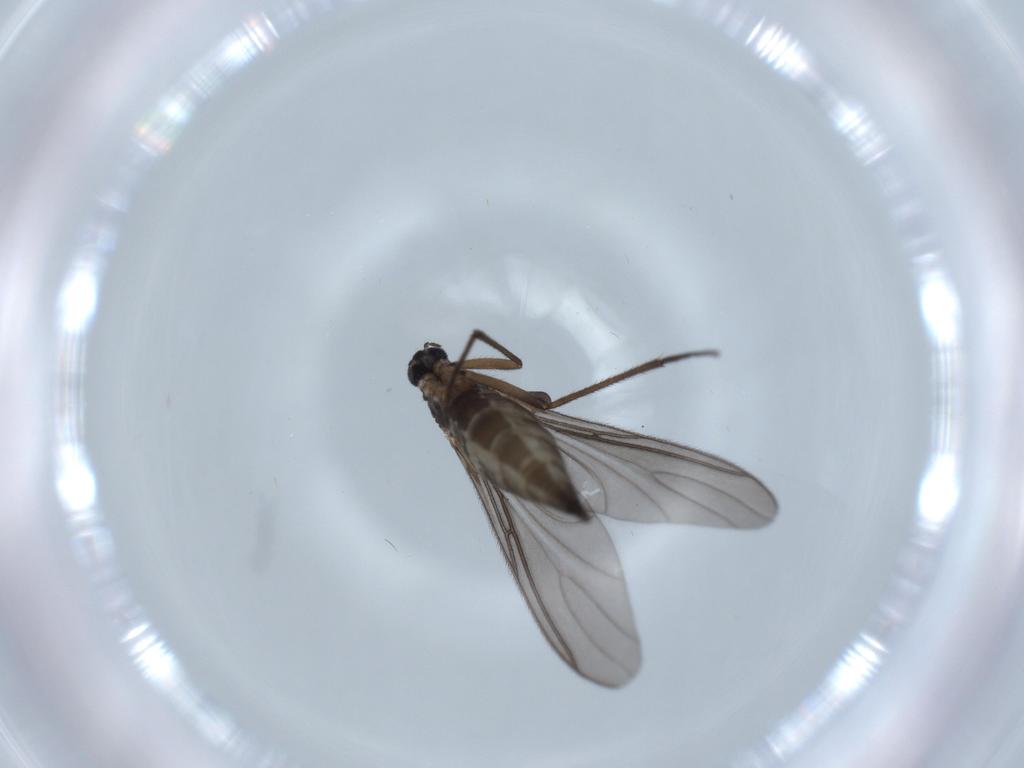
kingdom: Animalia
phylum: Arthropoda
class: Insecta
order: Diptera
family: Sciaridae
